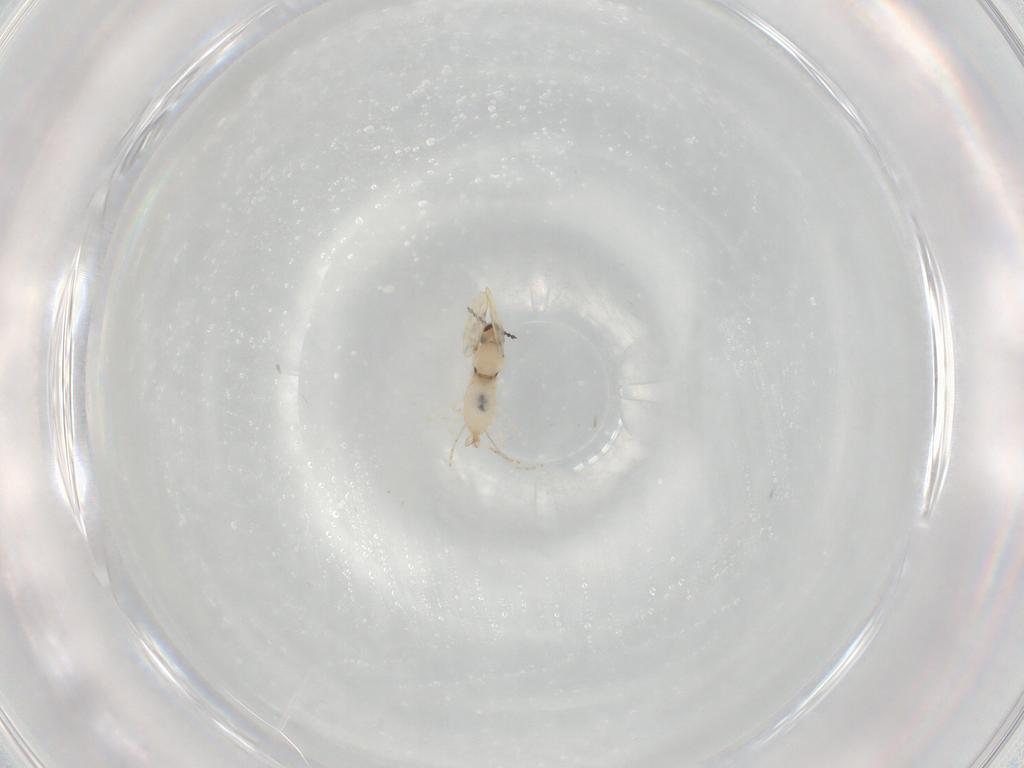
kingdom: Animalia
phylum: Arthropoda
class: Insecta
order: Diptera
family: Cecidomyiidae
